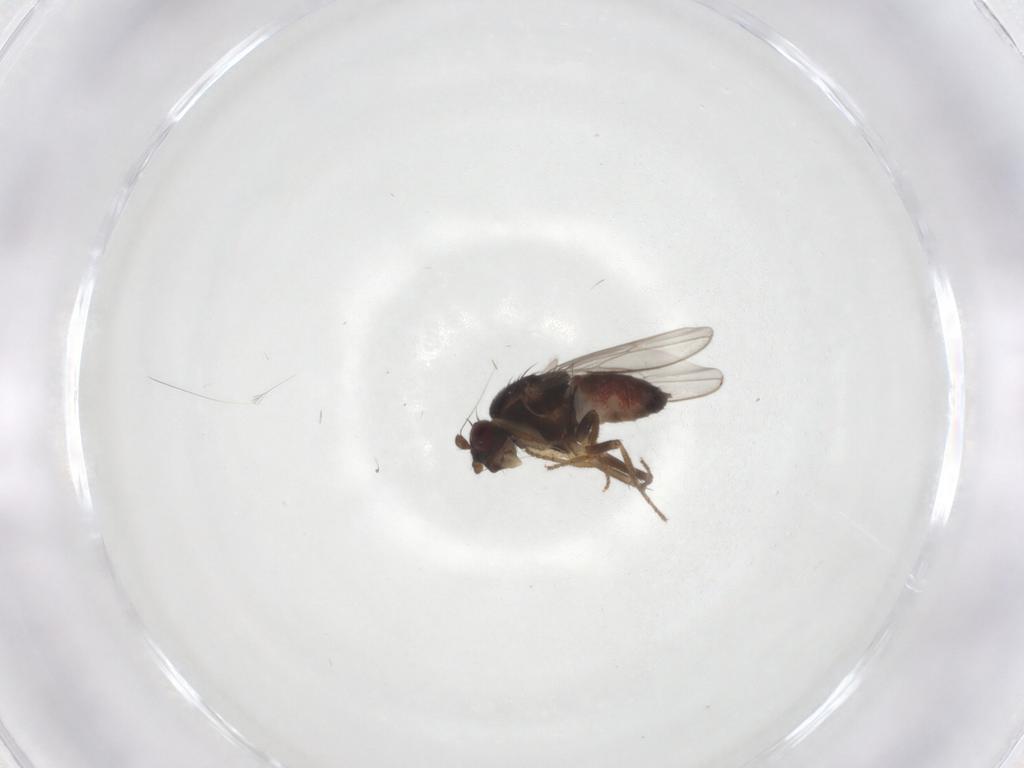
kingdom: Animalia
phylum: Arthropoda
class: Insecta
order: Diptera
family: Sphaeroceridae
